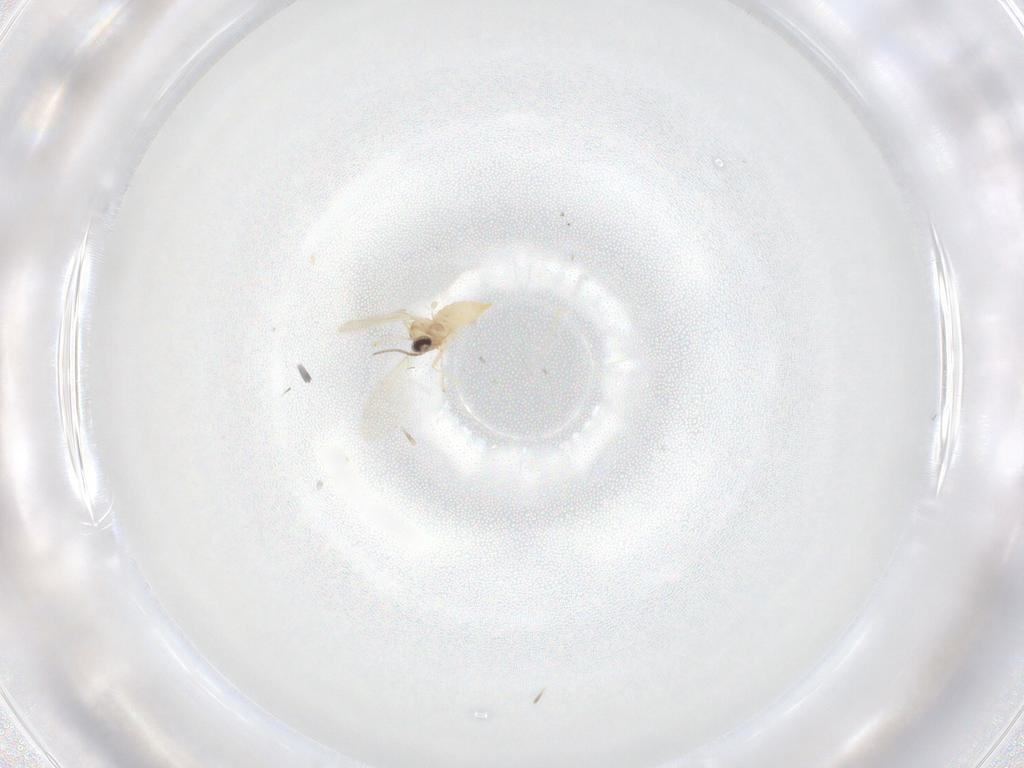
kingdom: Animalia
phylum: Arthropoda
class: Insecta
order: Diptera
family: Cecidomyiidae
